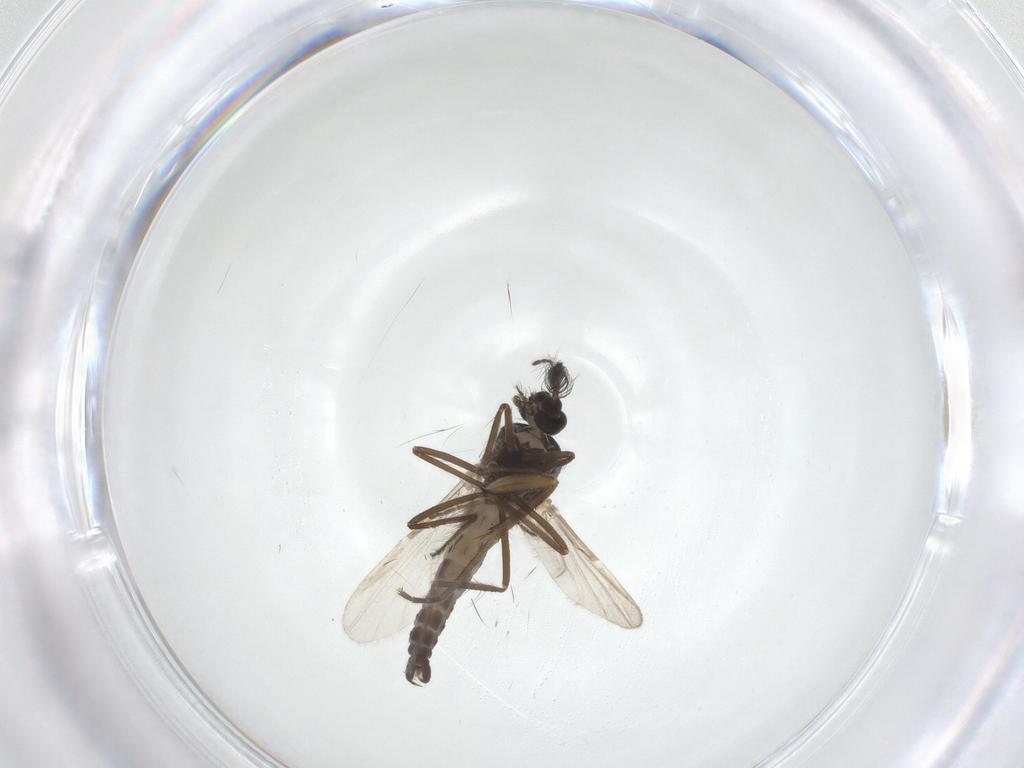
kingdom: Animalia
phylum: Arthropoda
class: Insecta
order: Diptera
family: Ceratopogonidae
